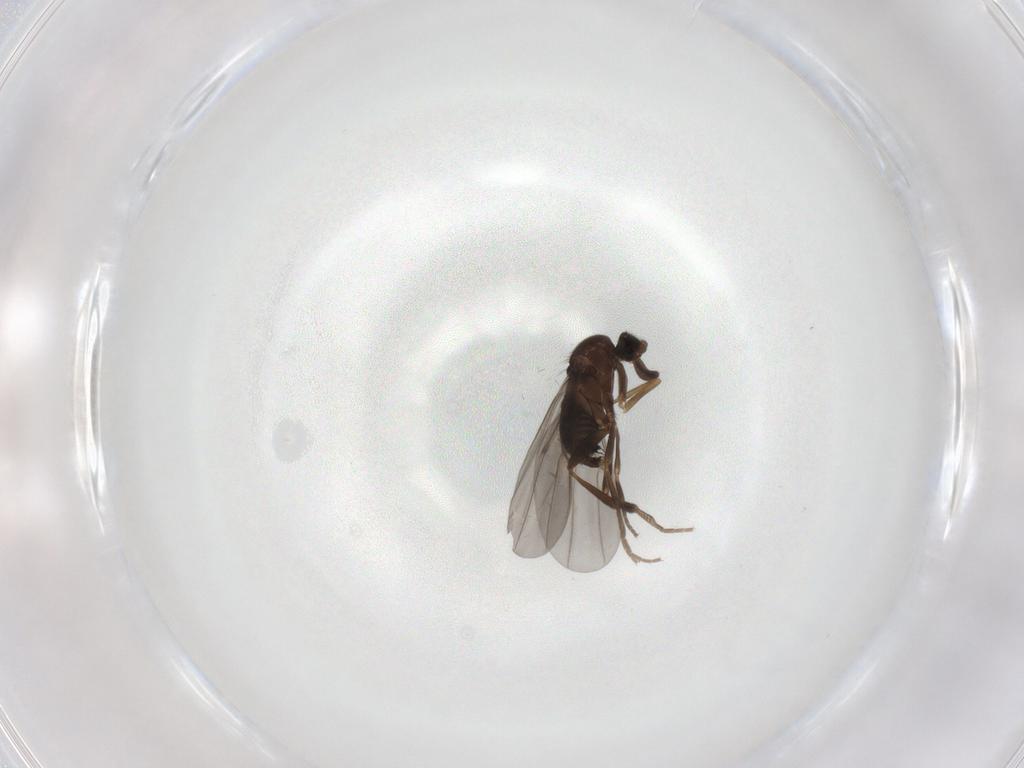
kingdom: Animalia
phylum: Arthropoda
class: Insecta
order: Diptera
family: Phoridae
